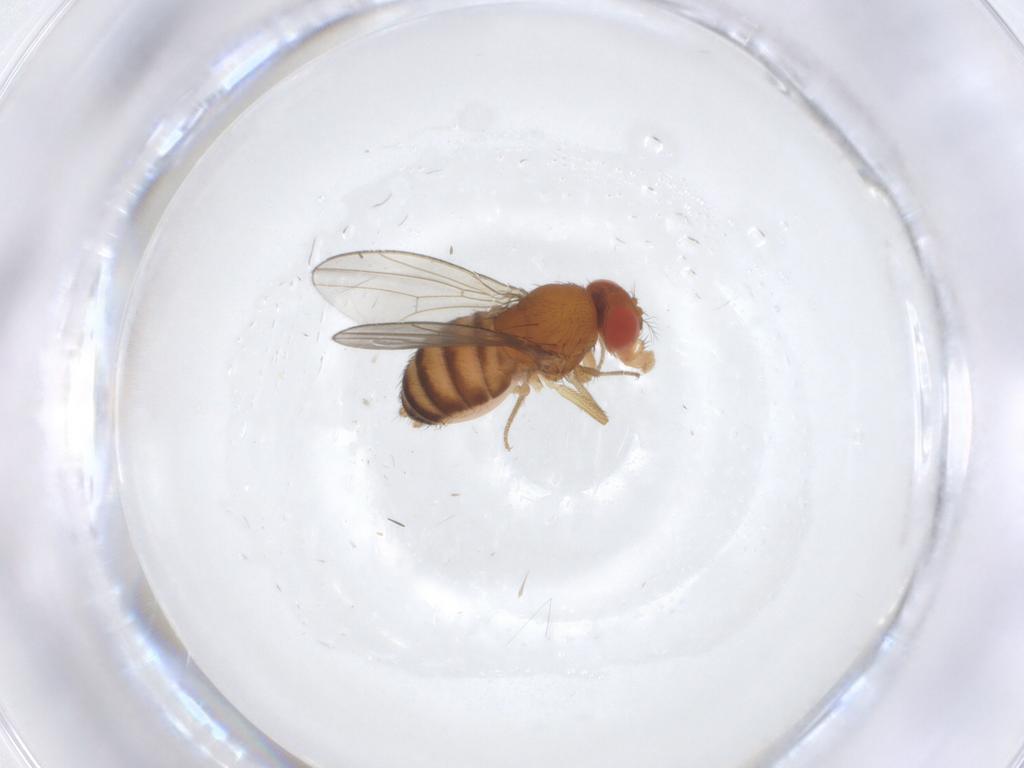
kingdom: Animalia
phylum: Arthropoda
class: Insecta
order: Diptera
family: Drosophilidae
